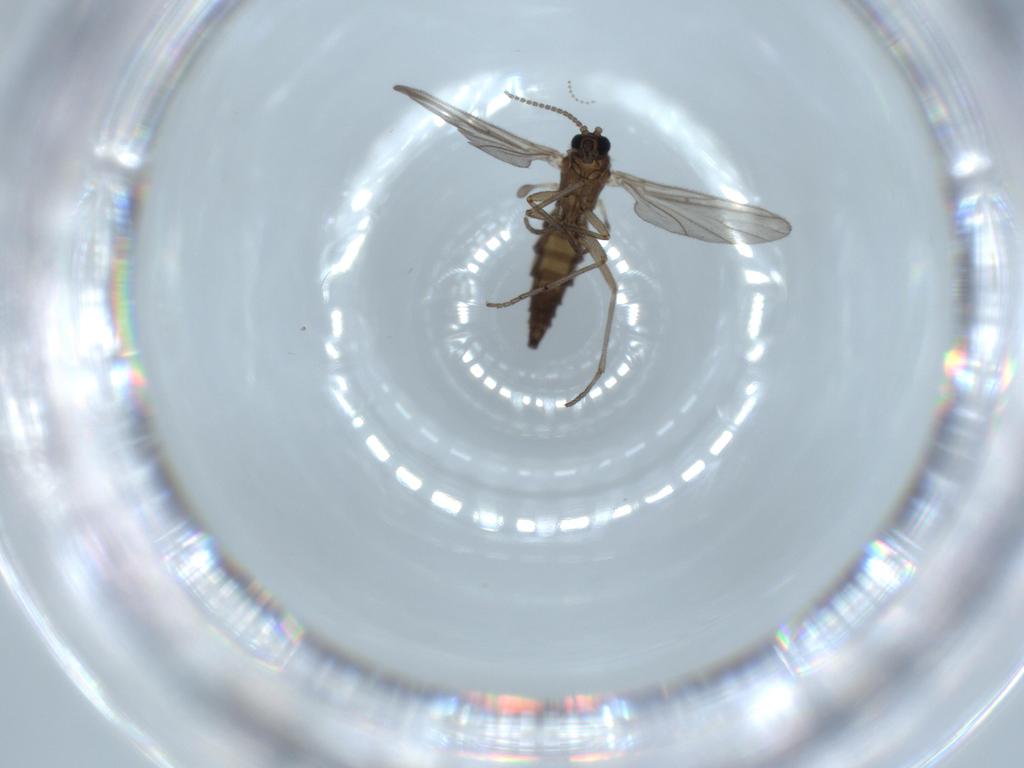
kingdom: Animalia
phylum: Arthropoda
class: Insecta
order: Diptera
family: Sciaridae
